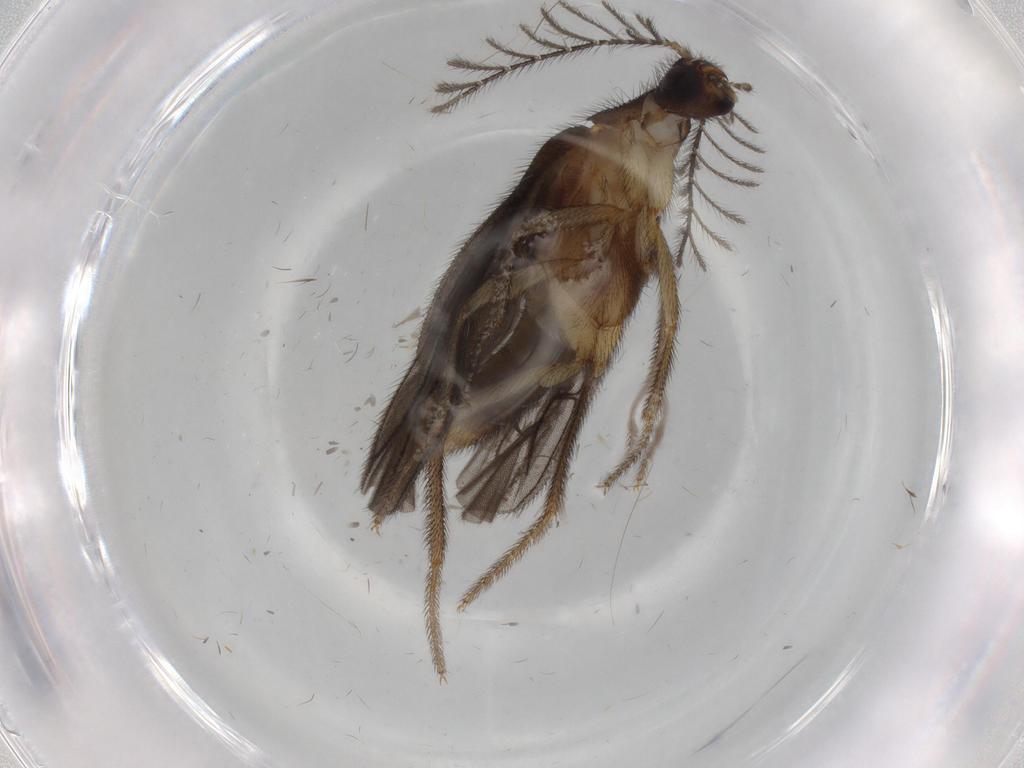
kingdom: Animalia
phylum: Arthropoda
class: Insecta
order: Coleoptera
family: Phengodidae
